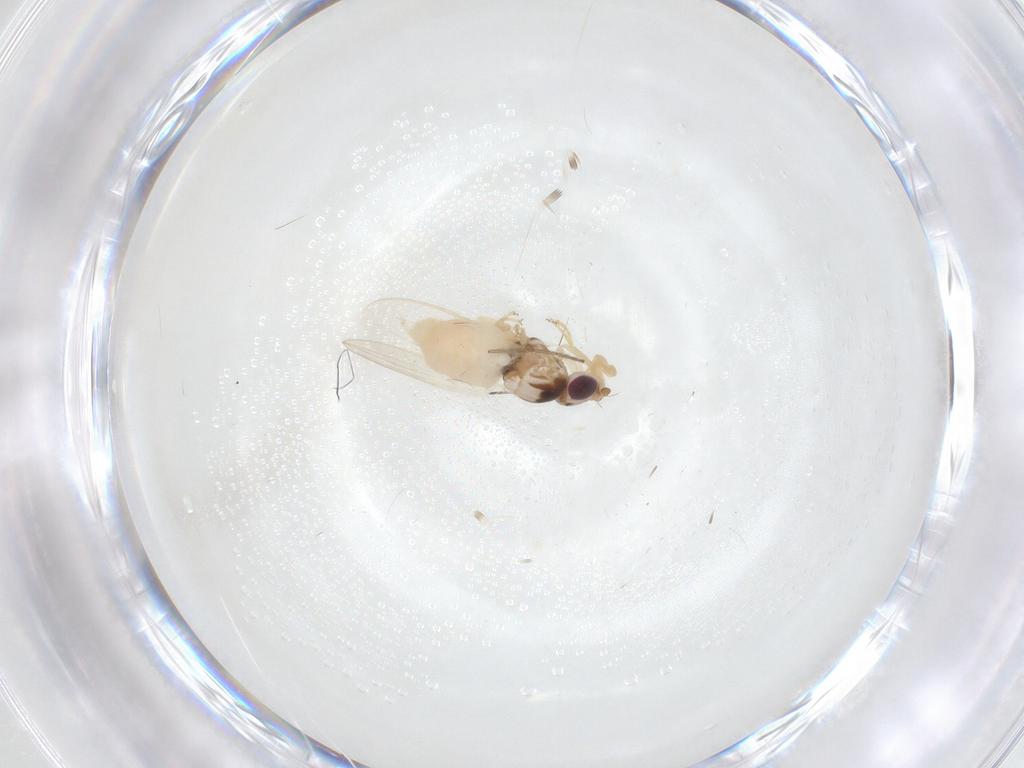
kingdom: Animalia
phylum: Arthropoda
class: Insecta
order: Diptera
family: Chloropidae
